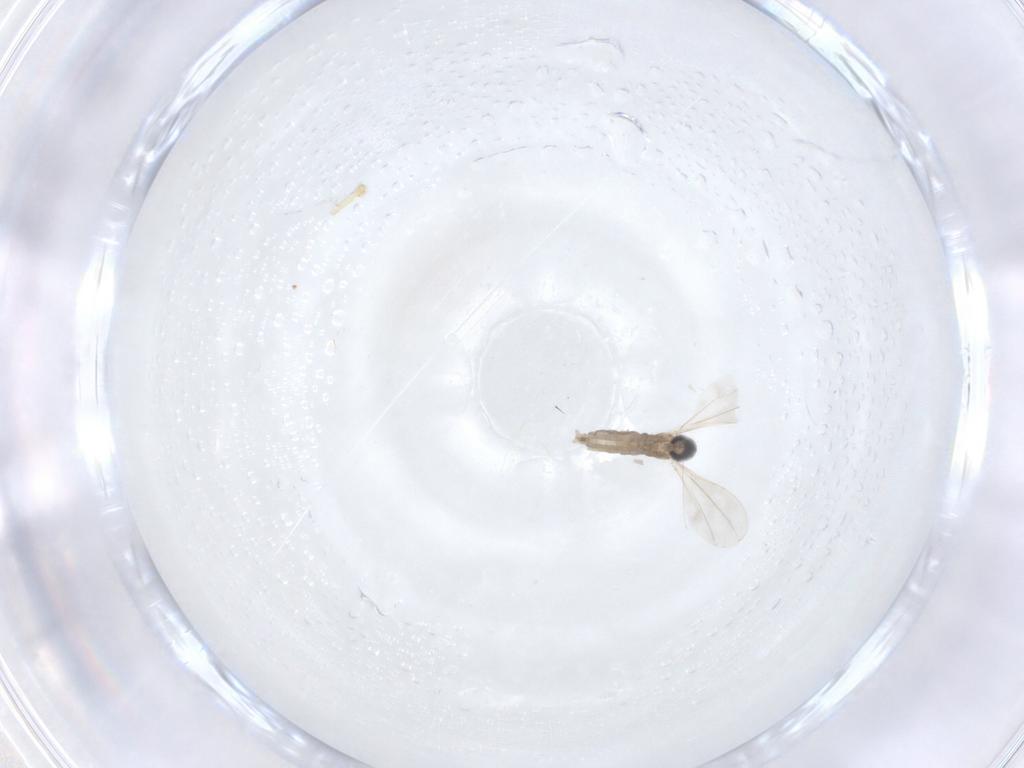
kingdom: Animalia
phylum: Arthropoda
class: Insecta
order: Diptera
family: Cecidomyiidae
